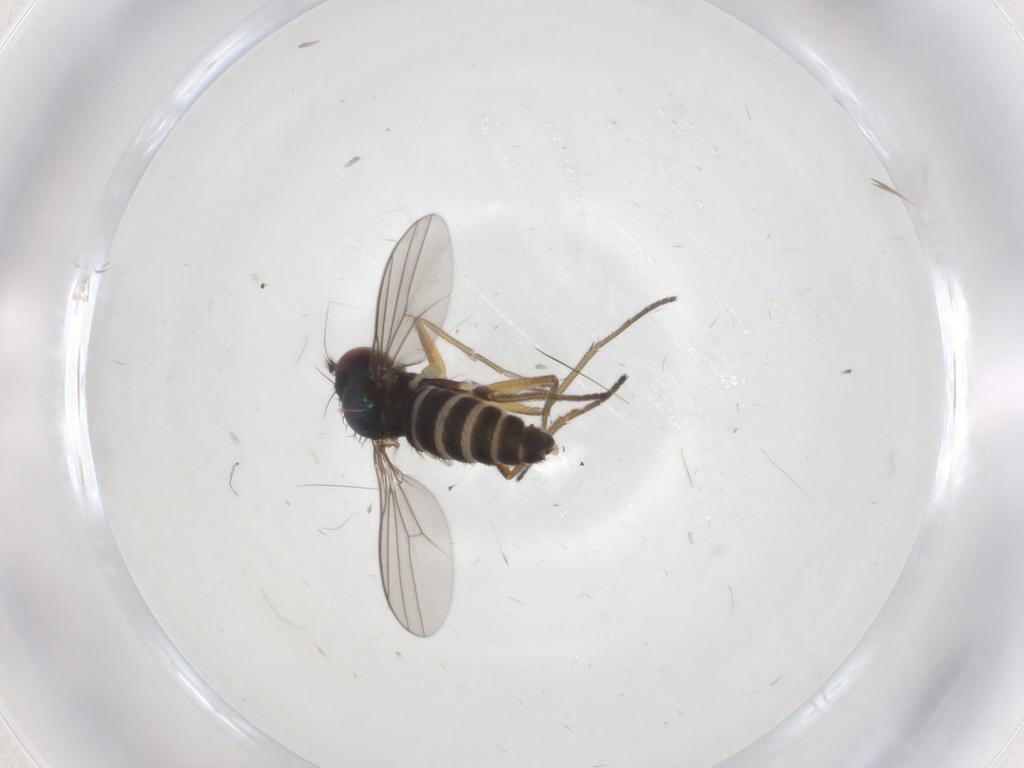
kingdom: Animalia
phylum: Arthropoda
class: Insecta
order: Diptera
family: Dolichopodidae
